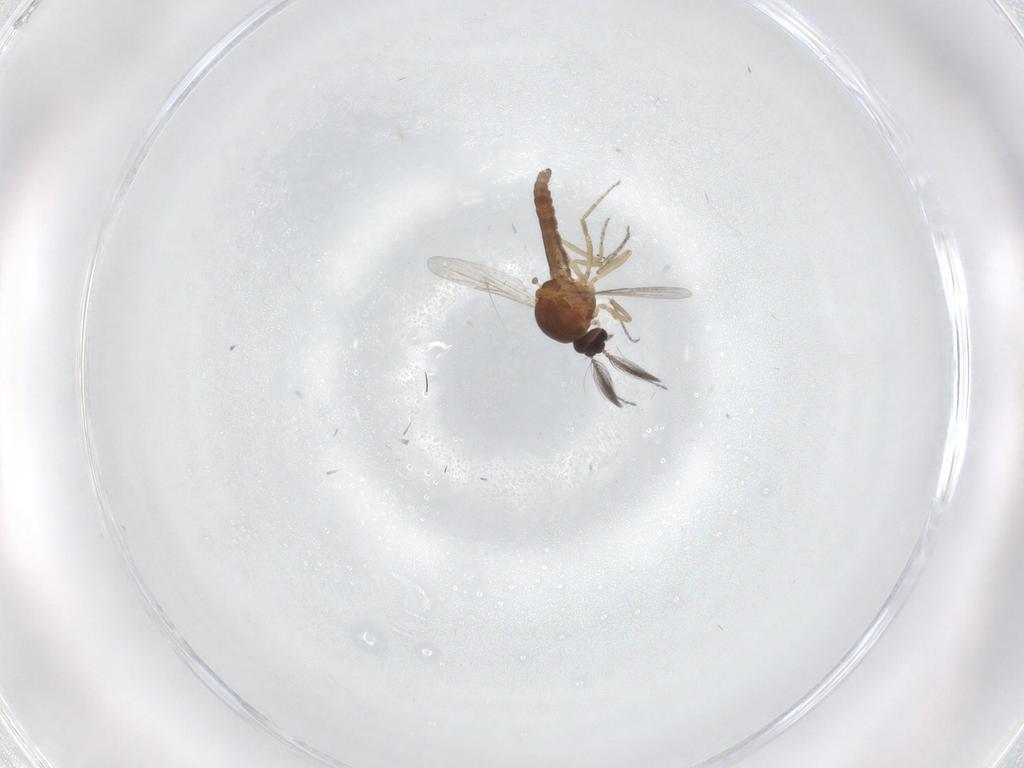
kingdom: Animalia
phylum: Arthropoda
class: Insecta
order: Diptera
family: Ceratopogonidae
